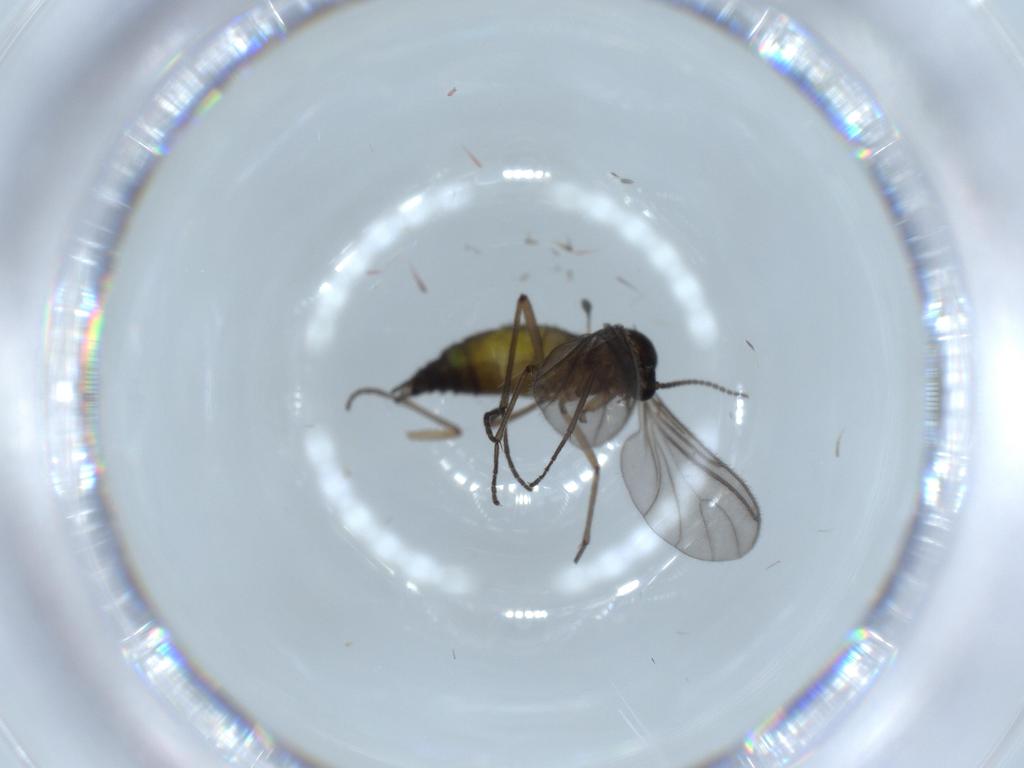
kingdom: Animalia
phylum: Arthropoda
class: Insecta
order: Diptera
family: Sciaridae
